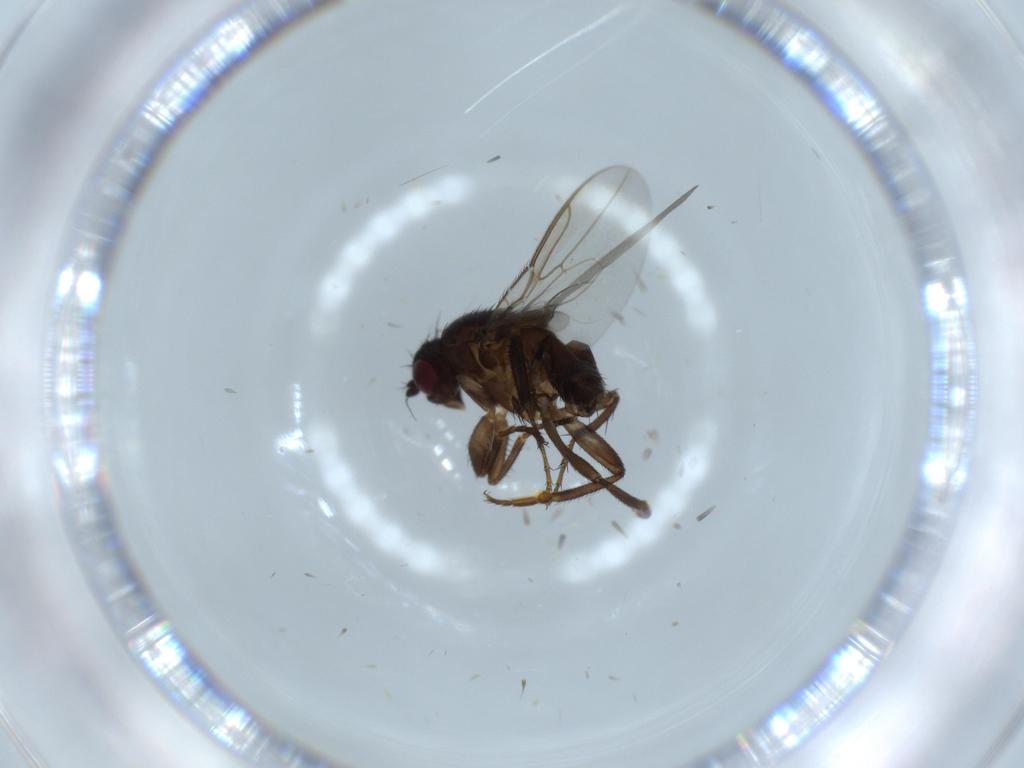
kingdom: Animalia
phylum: Arthropoda
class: Insecta
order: Diptera
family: Sphaeroceridae
